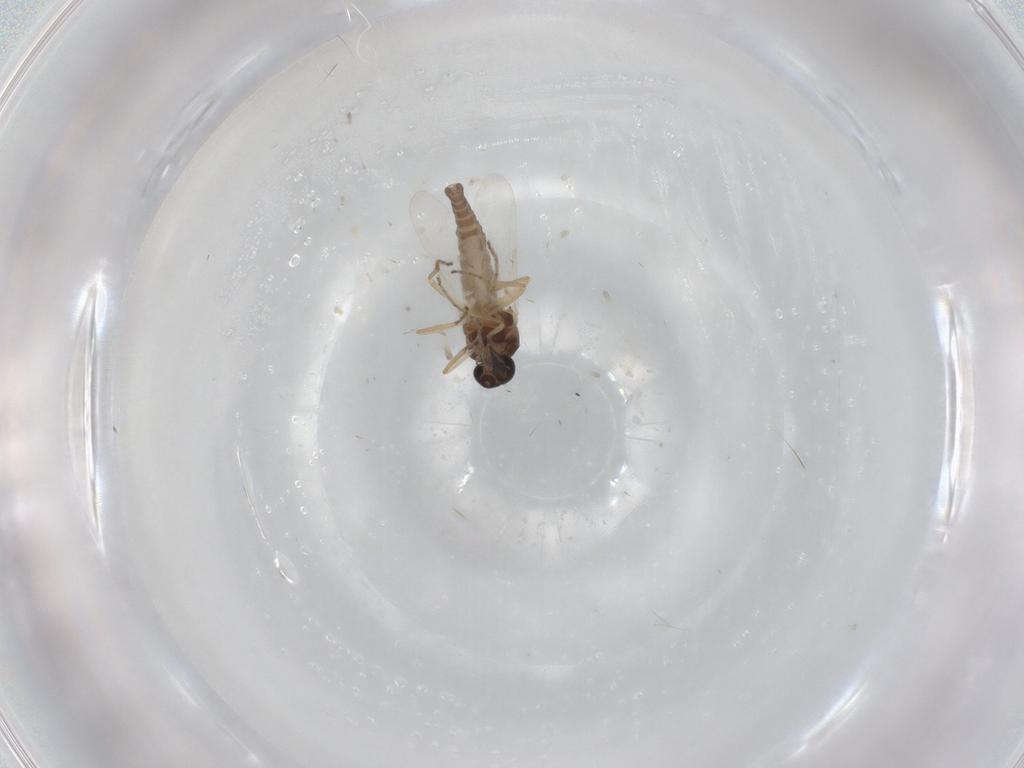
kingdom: Animalia
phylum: Arthropoda
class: Insecta
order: Diptera
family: Ceratopogonidae
